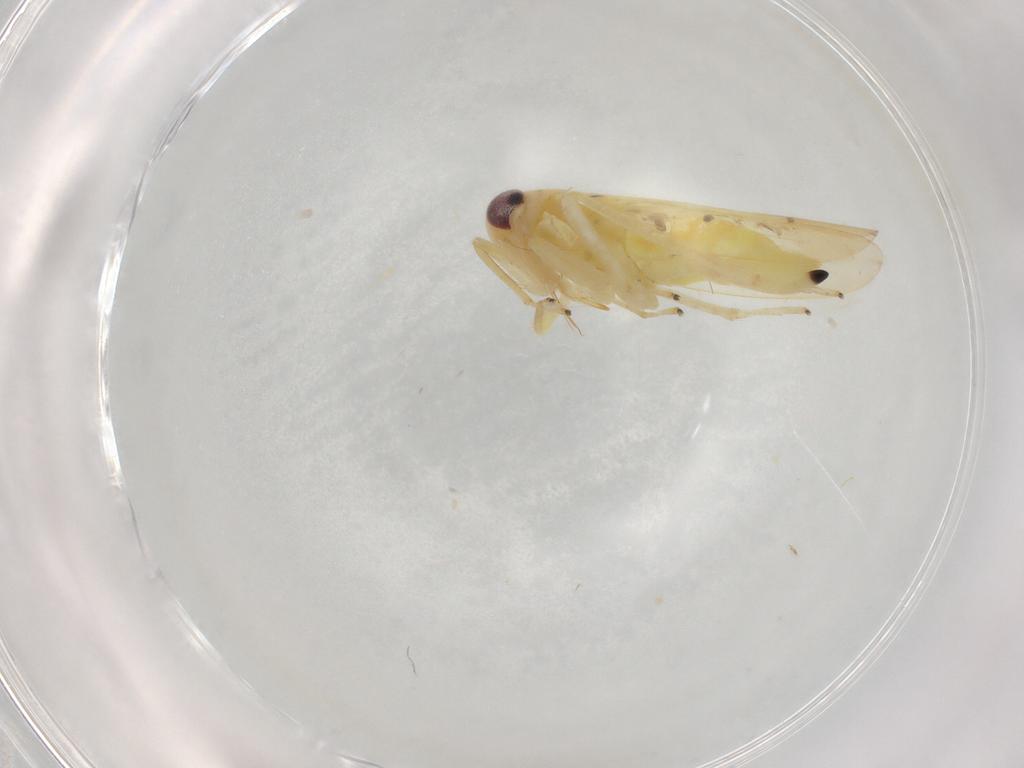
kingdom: Animalia
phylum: Arthropoda
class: Insecta
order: Hemiptera
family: Cicadellidae
